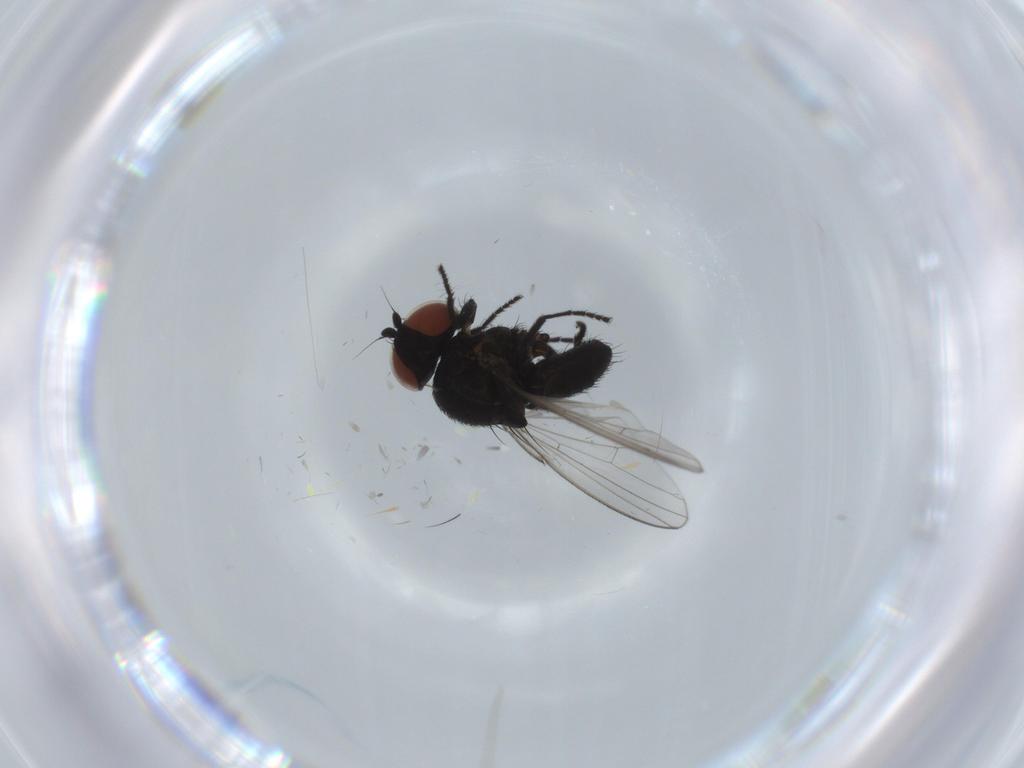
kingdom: Animalia
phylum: Arthropoda
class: Insecta
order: Diptera
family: Milichiidae
